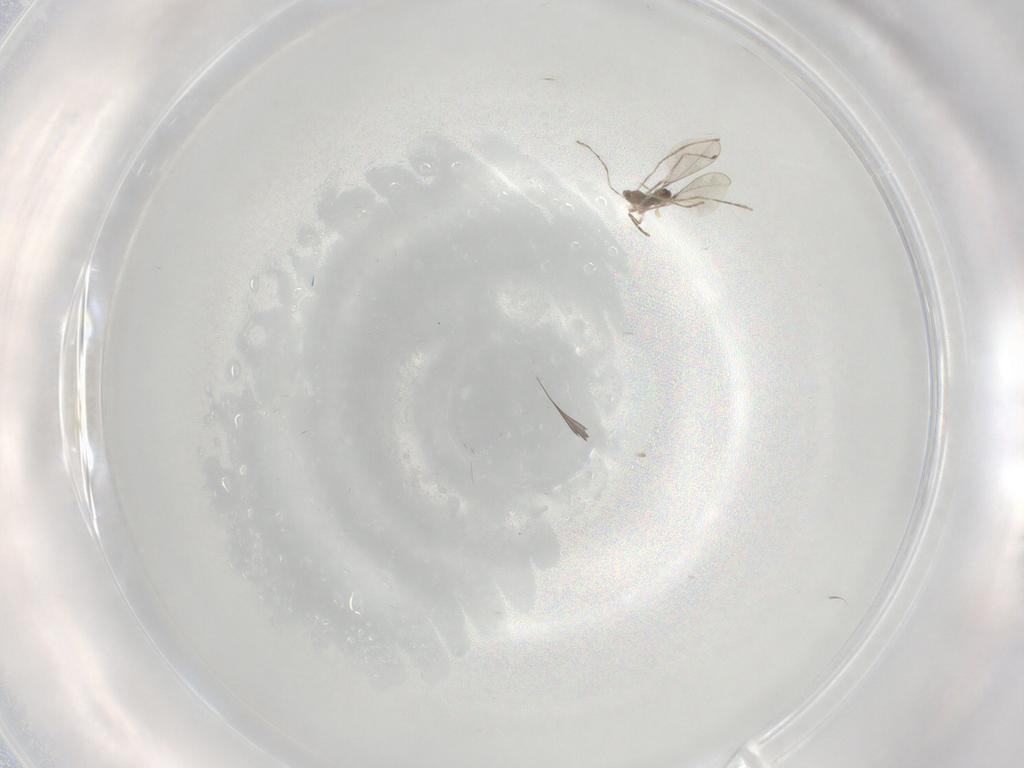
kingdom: Animalia
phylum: Arthropoda
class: Insecta
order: Diptera
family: Cecidomyiidae
